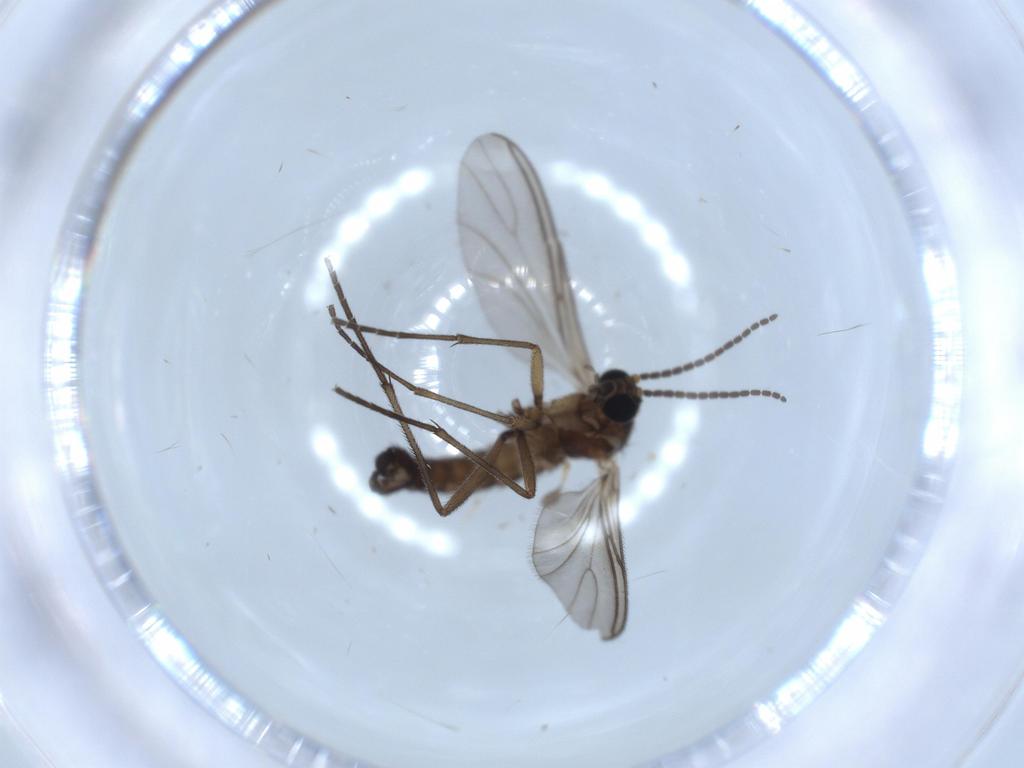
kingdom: Animalia
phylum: Arthropoda
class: Insecta
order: Diptera
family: Sciaridae
